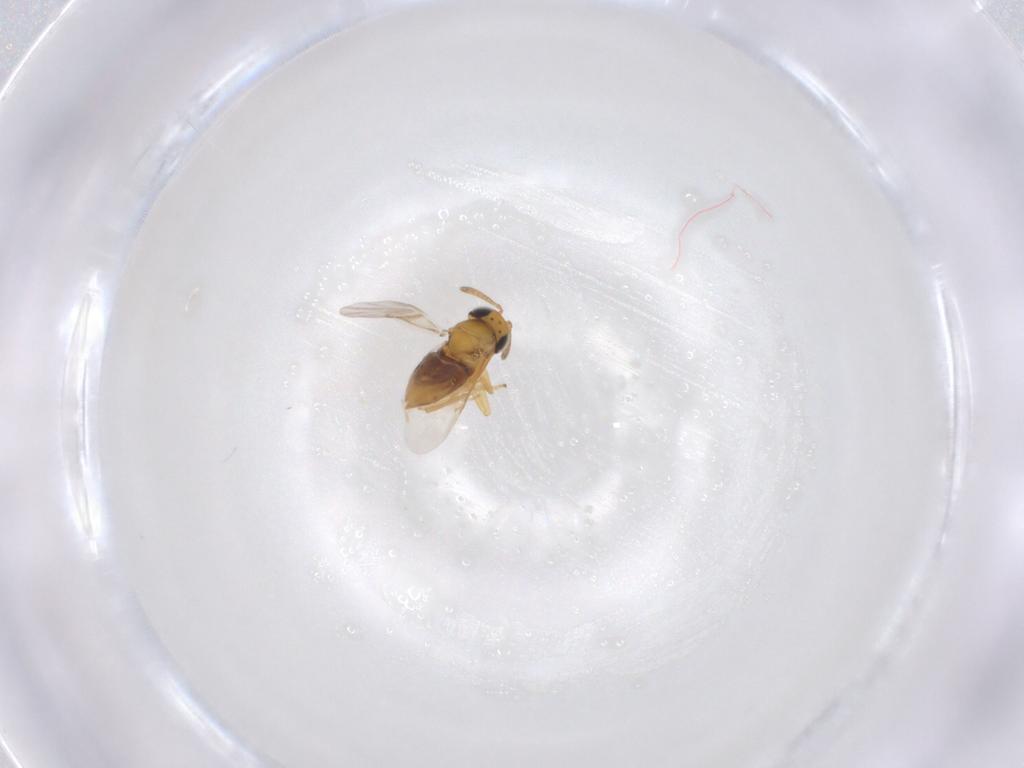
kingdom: Animalia
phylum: Arthropoda
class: Insecta
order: Hymenoptera
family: Encyrtidae
